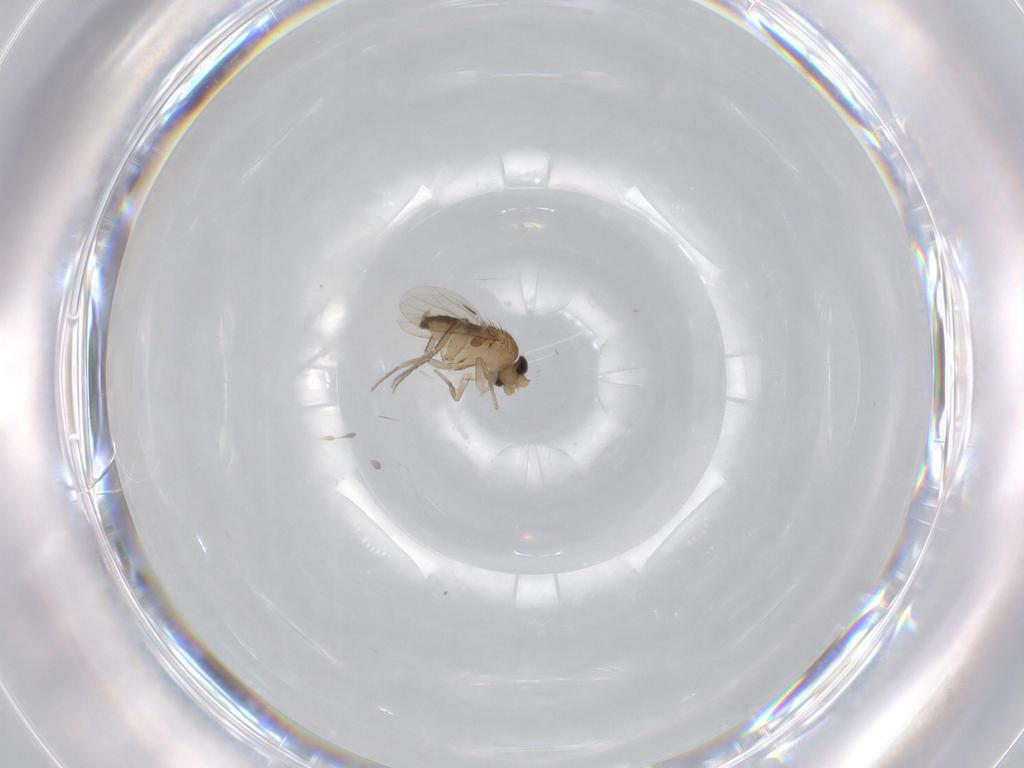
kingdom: Animalia
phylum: Arthropoda
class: Insecta
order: Diptera
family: Phoridae
